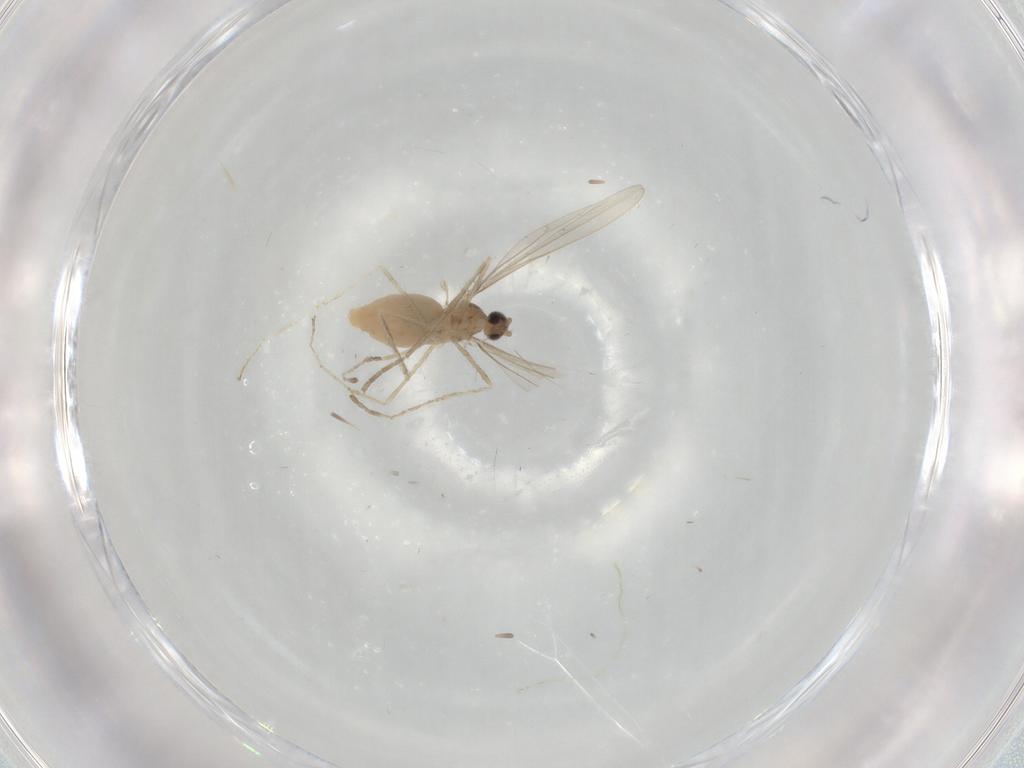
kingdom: Animalia
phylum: Arthropoda
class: Insecta
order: Diptera
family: Cecidomyiidae
